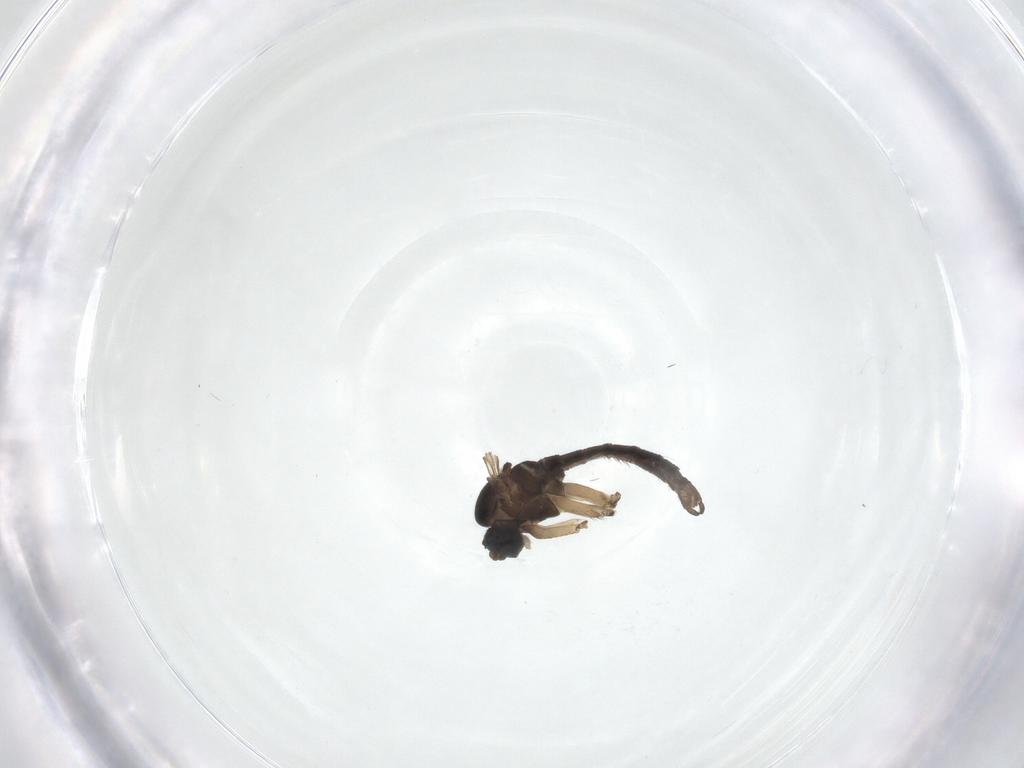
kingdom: Animalia
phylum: Arthropoda
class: Insecta
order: Diptera
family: Sciaridae
